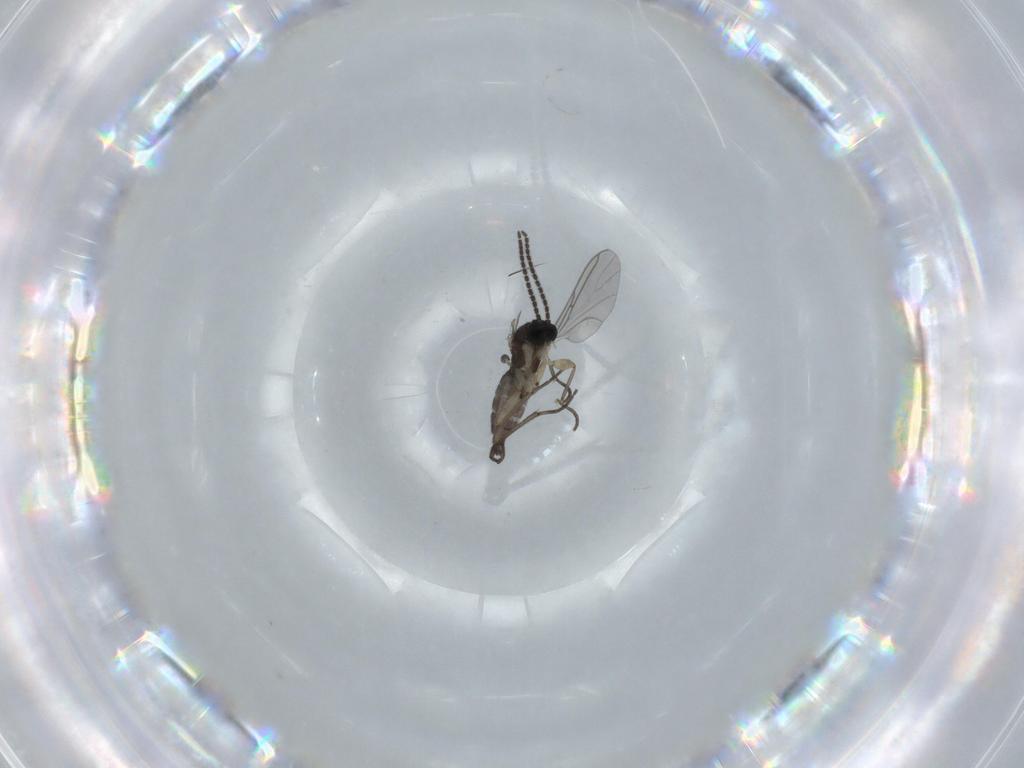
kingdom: Animalia
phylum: Arthropoda
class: Insecta
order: Diptera
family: Sciaridae
